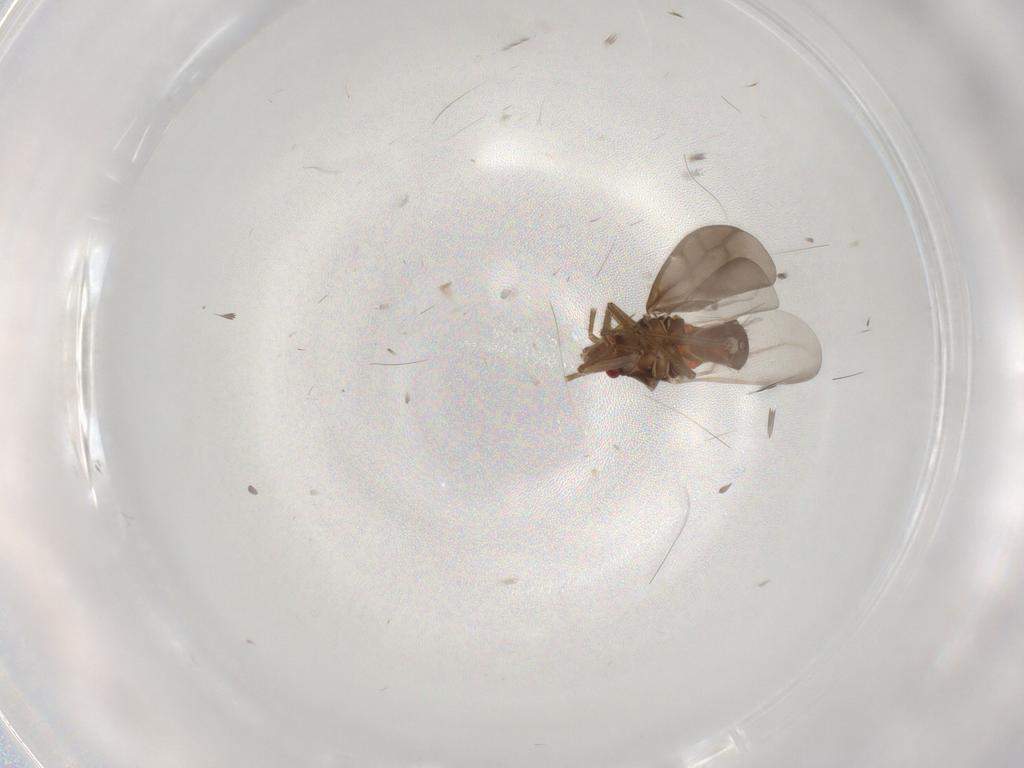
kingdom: Animalia
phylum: Arthropoda
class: Insecta
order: Hemiptera
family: Ceratocombidae
